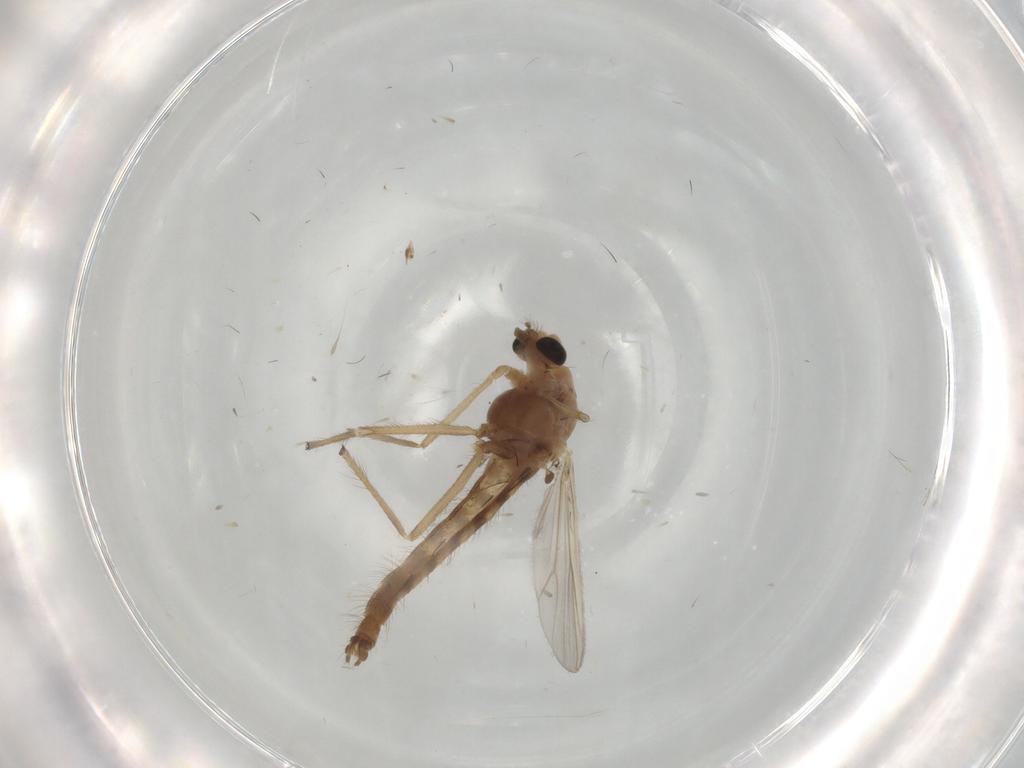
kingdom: Animalia
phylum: Arthropoda
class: Insecta
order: Diptera
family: Chironomidae
